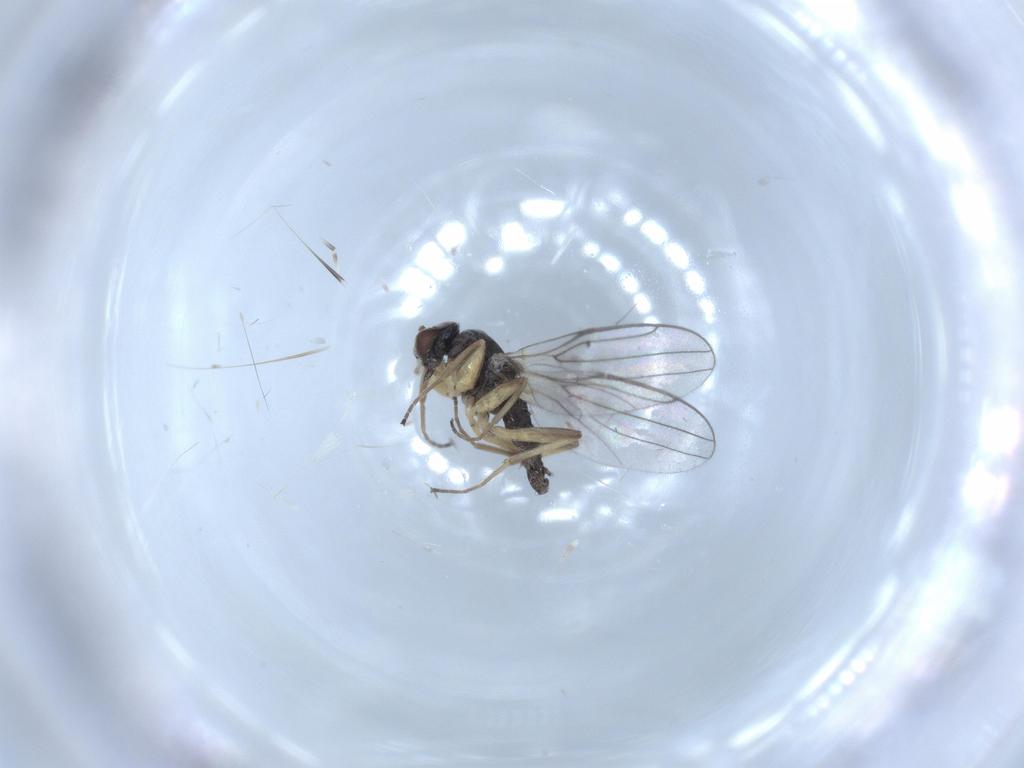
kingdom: Animalia
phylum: Arthropoda
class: Insecta
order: Diptera
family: Hybotidae
